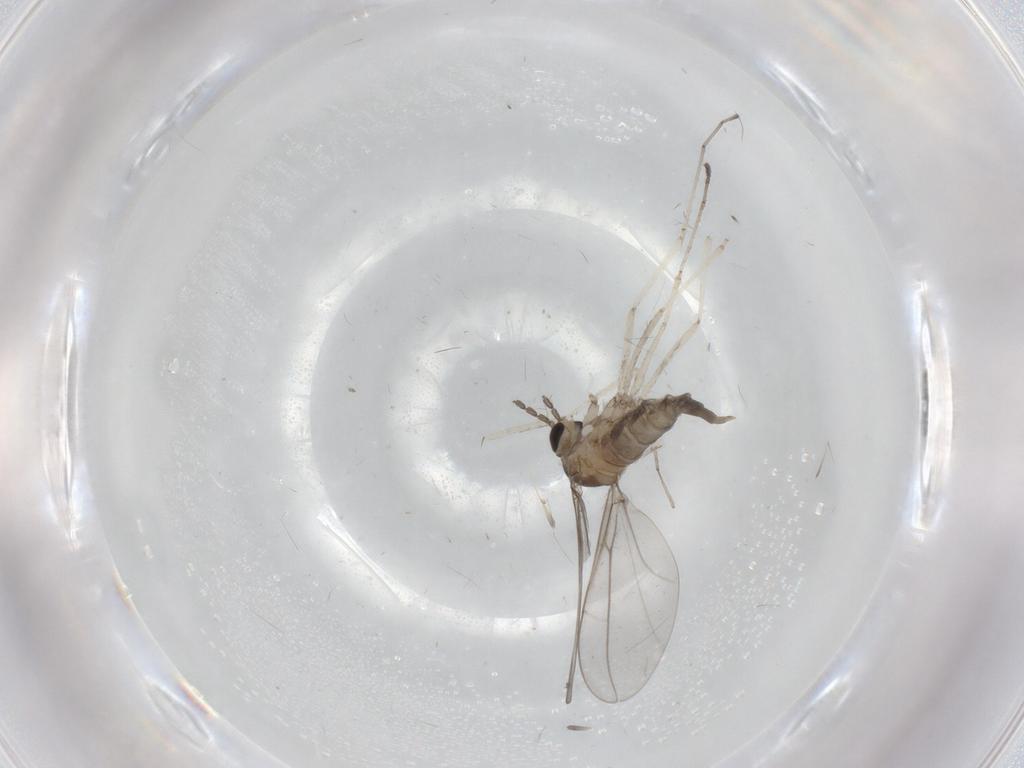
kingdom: Animalia
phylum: Arthropoda
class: Insecta
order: Diptera
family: Cecidomyiidae
